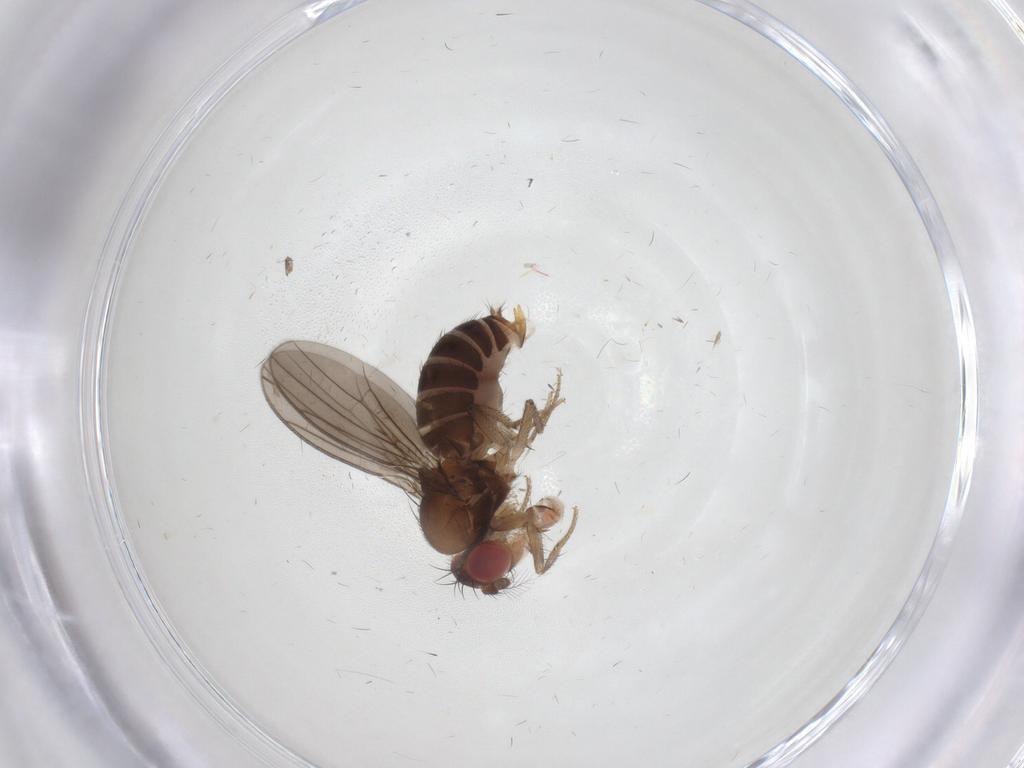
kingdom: Animalia
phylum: Arthropoda
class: Insecta
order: Diptera
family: Drosophilidae
